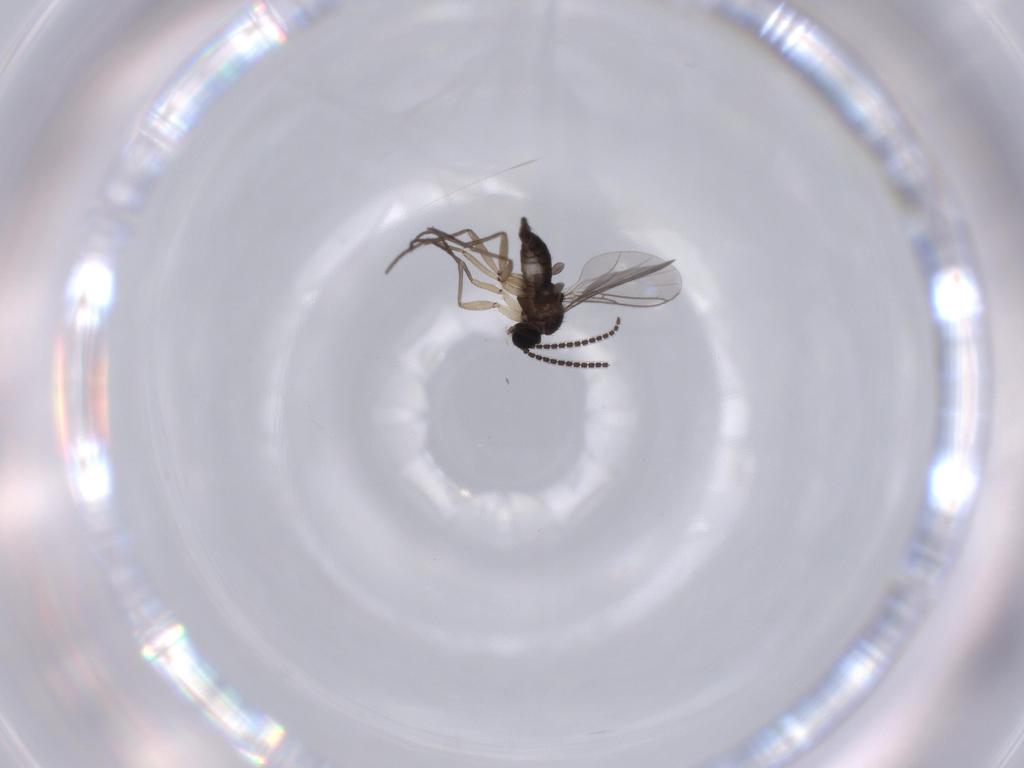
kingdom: Animalia
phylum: Arthropoda
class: Insecta
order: Diptera
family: Sciaridae
